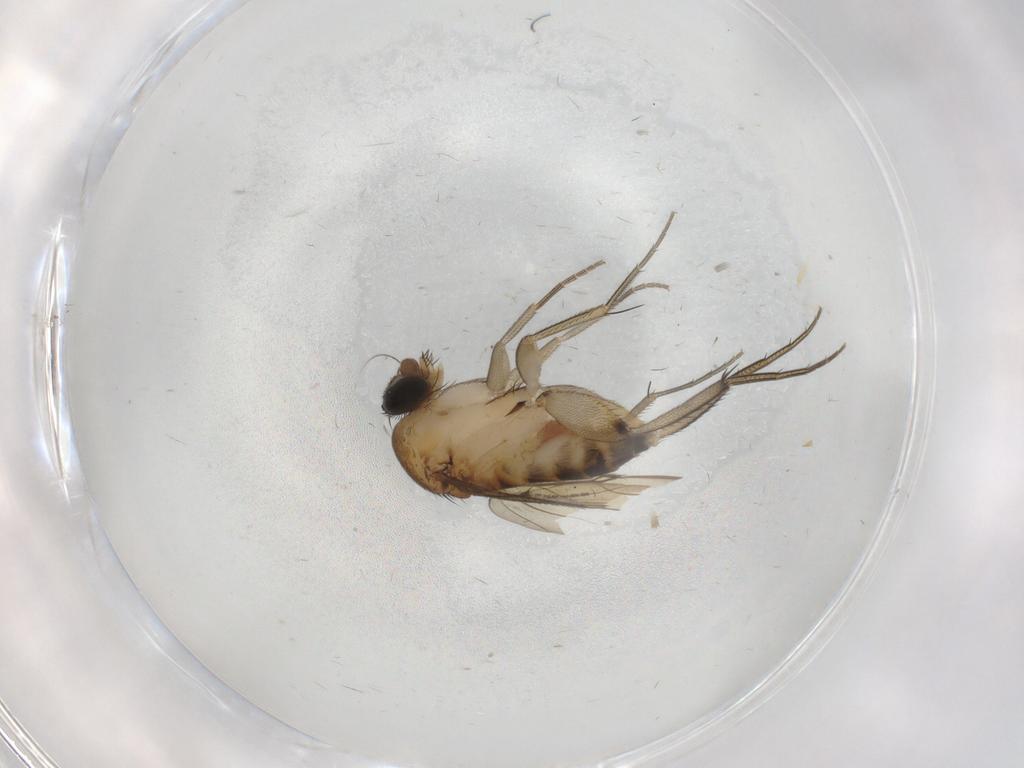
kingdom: Animalia
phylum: Arthropoda
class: Insecta
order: Diptera
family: Phoridae
